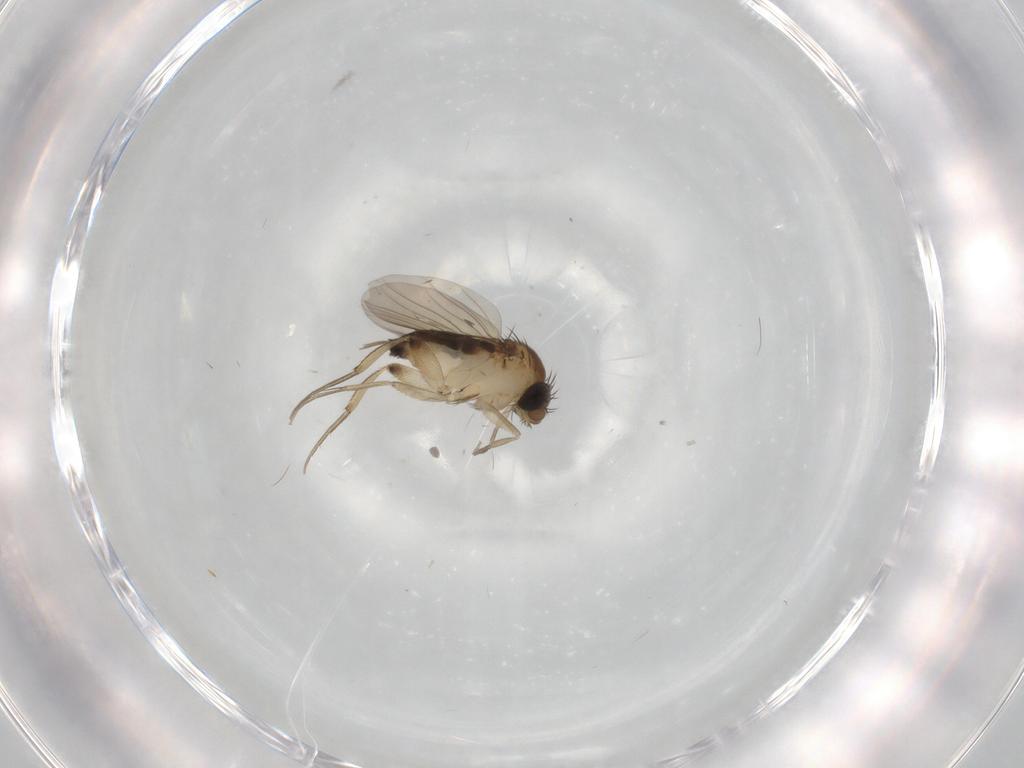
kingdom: Animalia
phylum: Arthropoda
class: Insecta
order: Diptera
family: Phoridae
